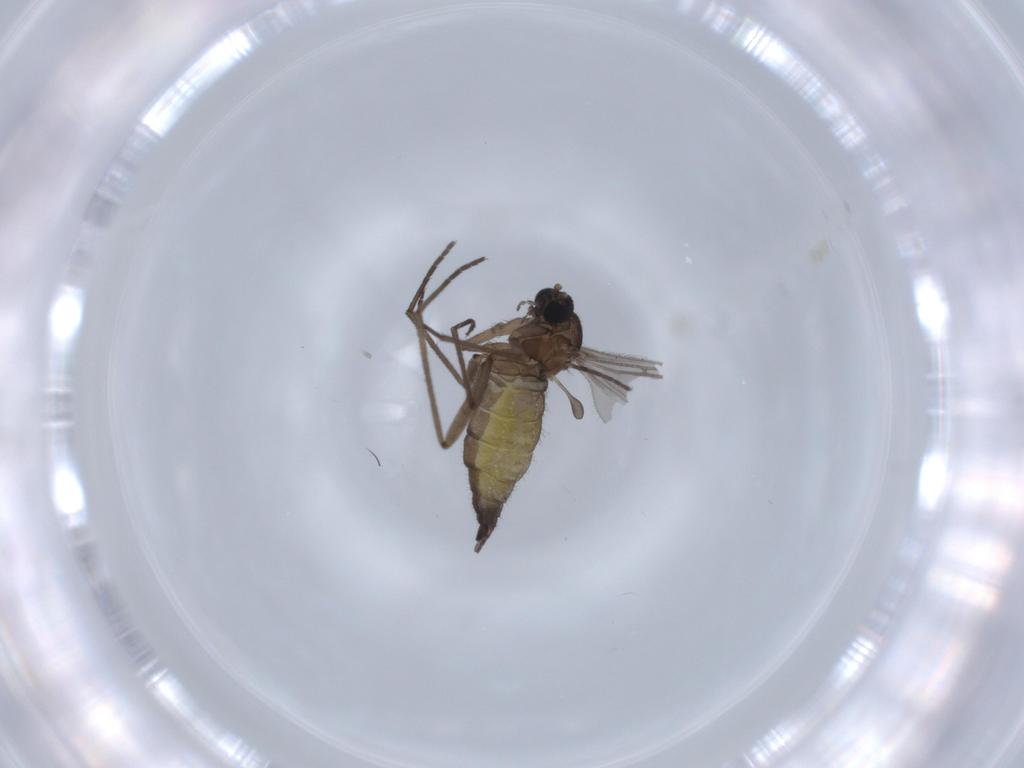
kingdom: Animalia
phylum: Arthropoda
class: Insecta
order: Diptera
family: Sciaridae
